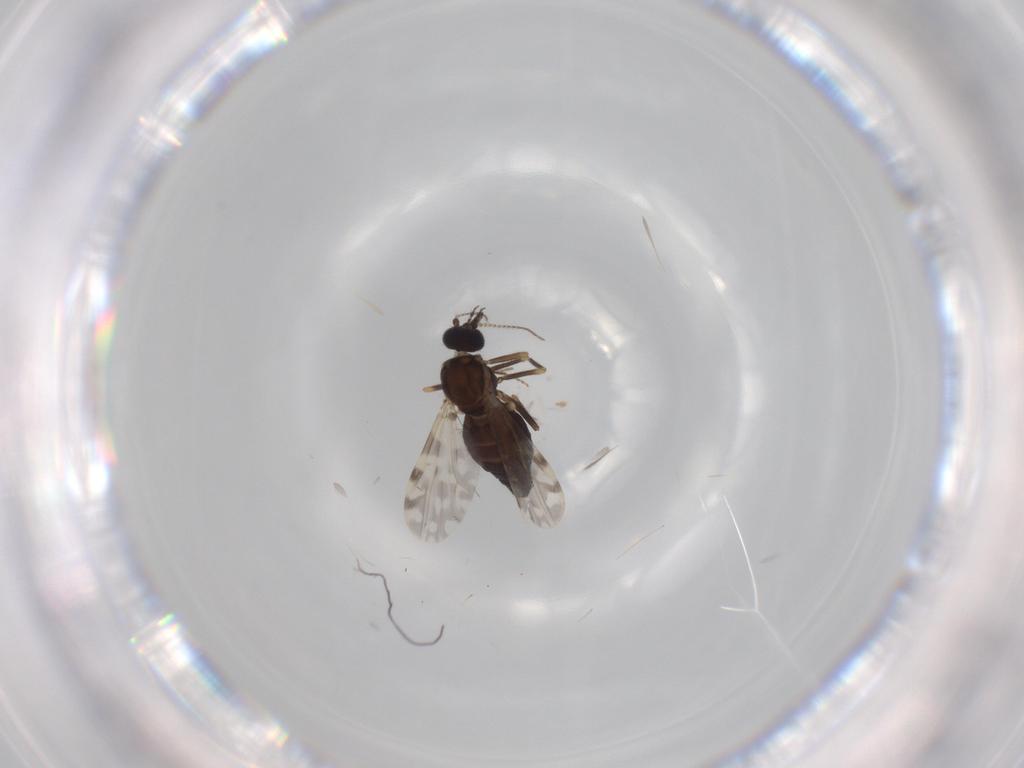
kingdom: Animalia
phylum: Arthropoda
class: Insecta
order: Diptera
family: Ceratopogonidae
